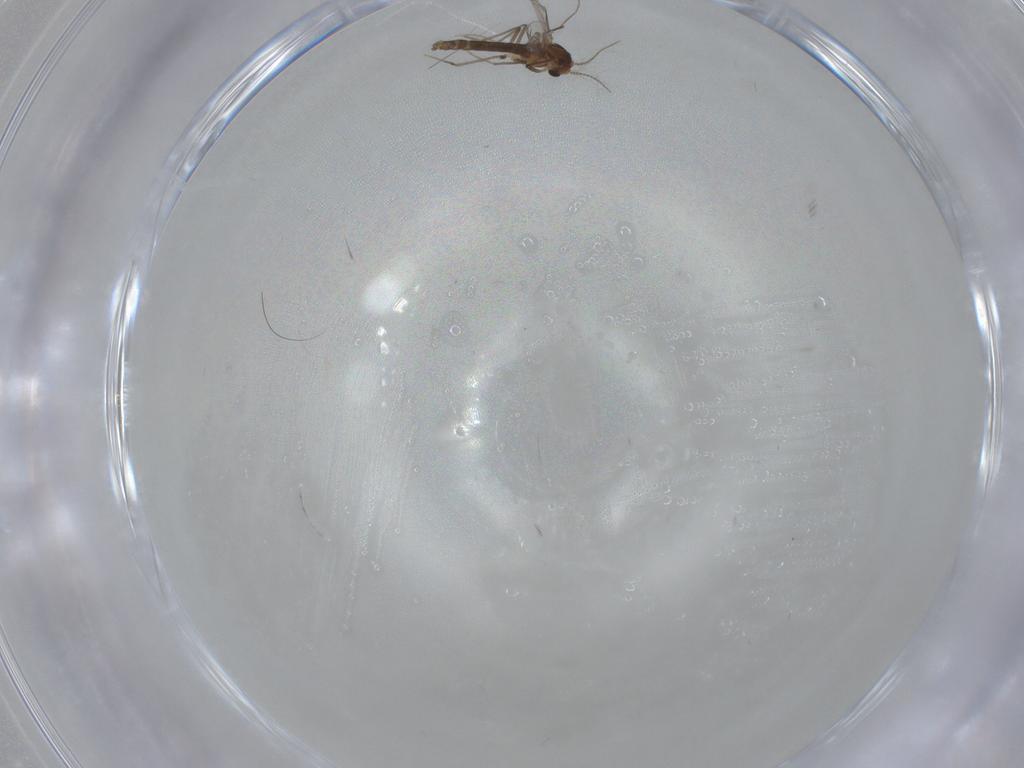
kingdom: Animalia
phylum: Arthropoda
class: Insecta
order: Diptera
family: Chironomidae
